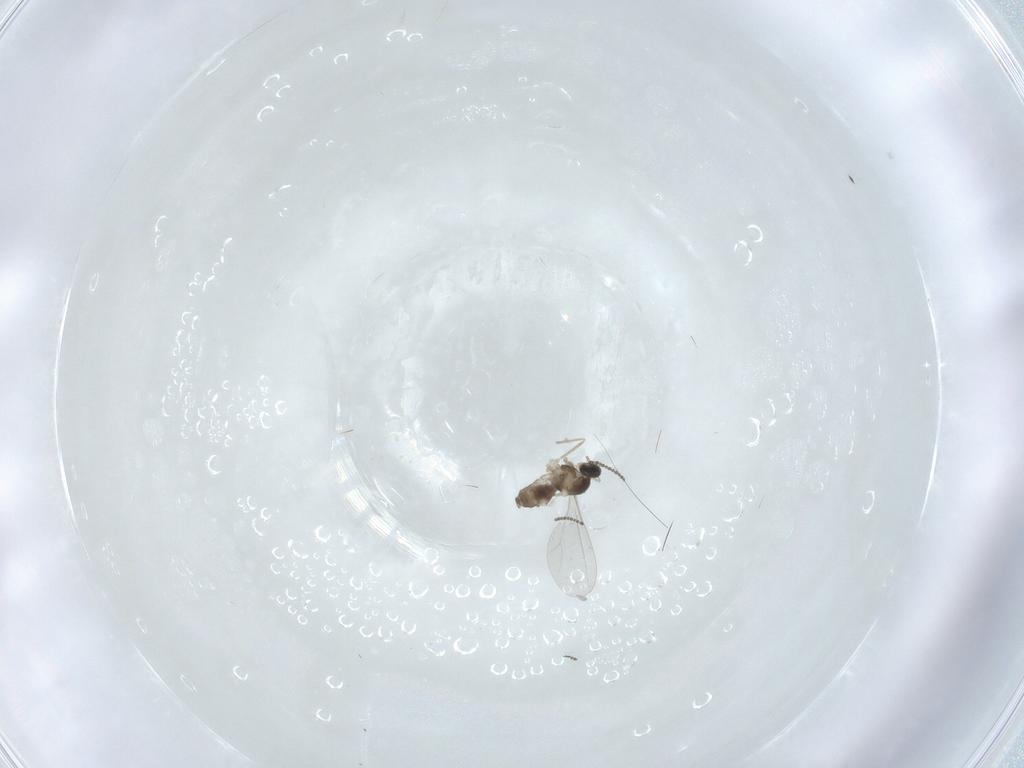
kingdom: Animalia
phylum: Arthropoda
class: Insecta
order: Diptera
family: Cecidomyiidae
